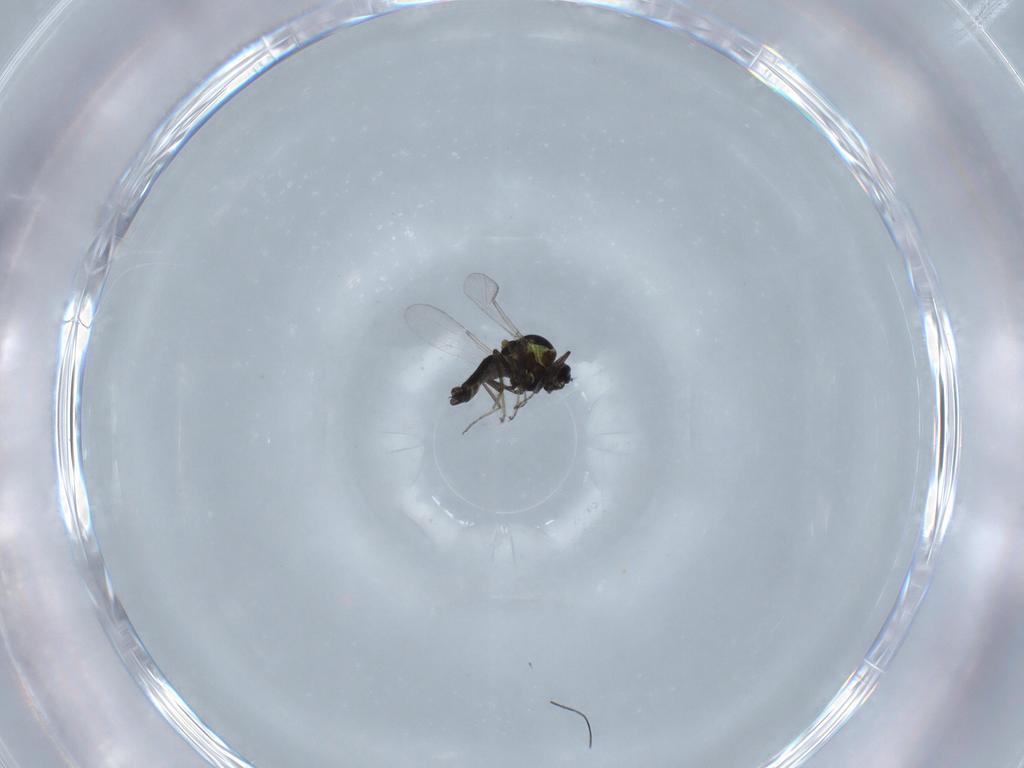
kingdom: Animalia
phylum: Arthropoda
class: Insecta
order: Diptera
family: Ceratopogonidae
